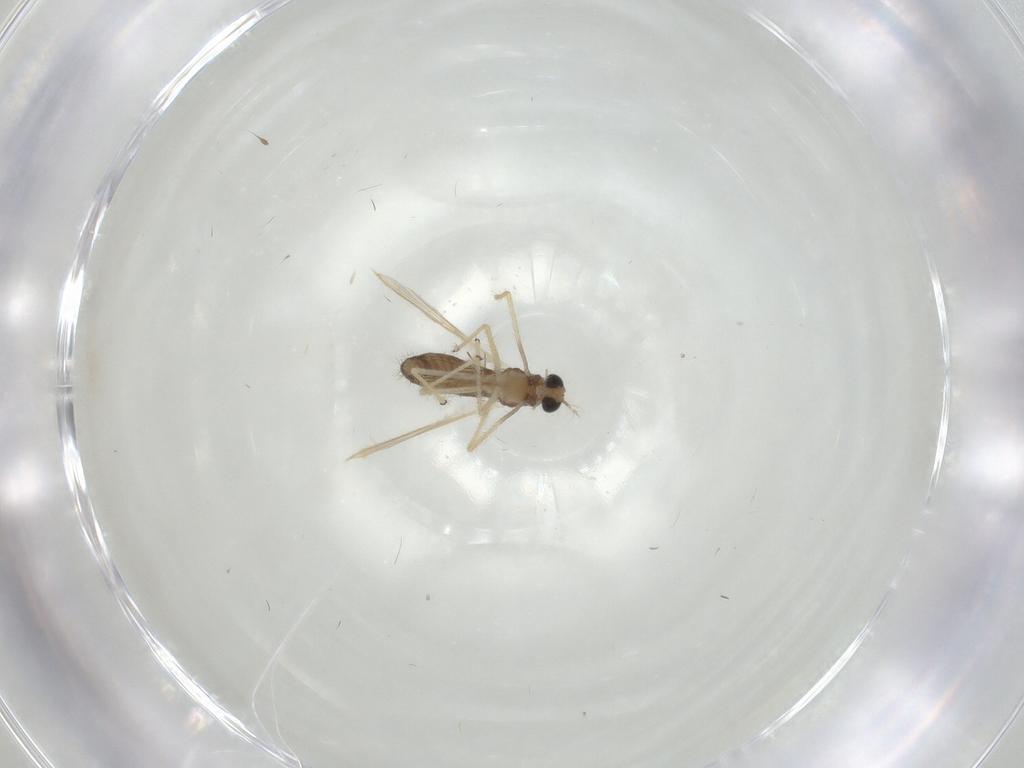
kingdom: Animalia
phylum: Arthropoda
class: Insecta
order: Diptera
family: Chironomidae
